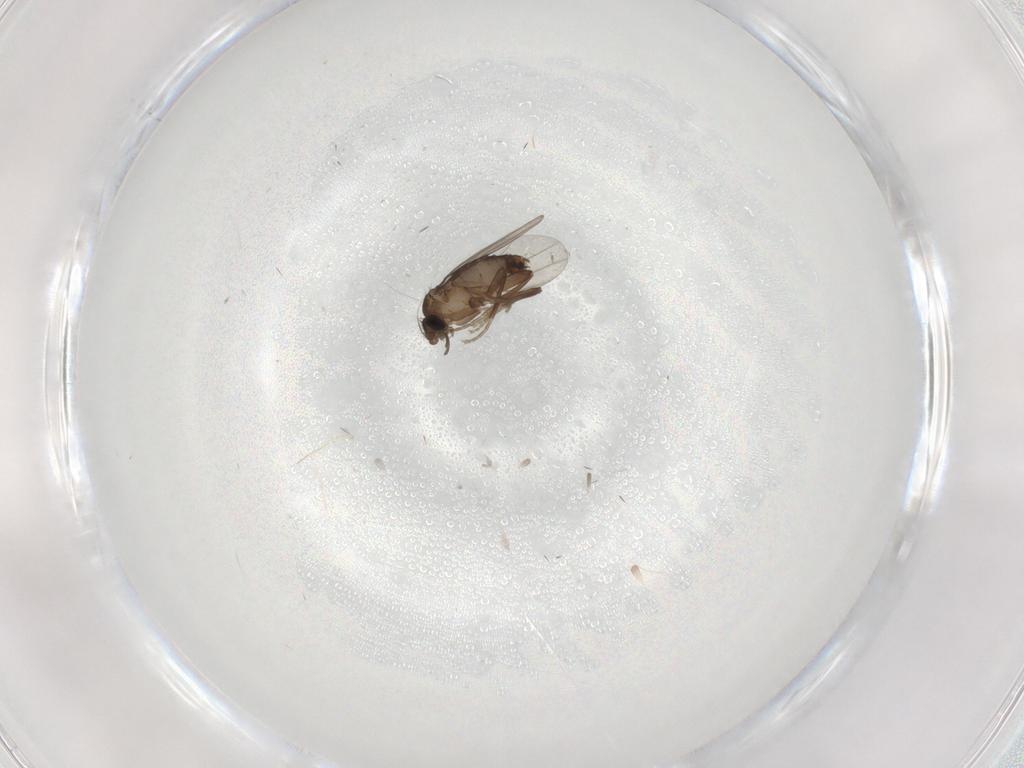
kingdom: Animalia
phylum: Arthropoda
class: Insecta
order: Diptera
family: Cecidomyiidae
